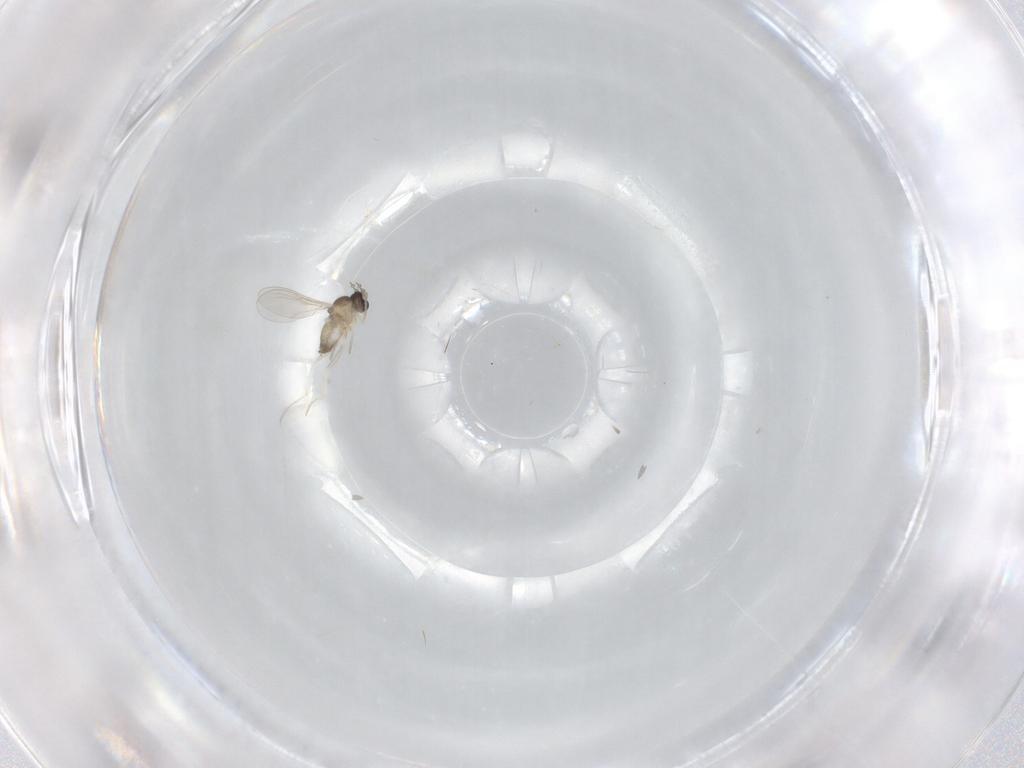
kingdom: Animalia
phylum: Arthropoda
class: Insecta
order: Diptera
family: Cecidomyiidae
